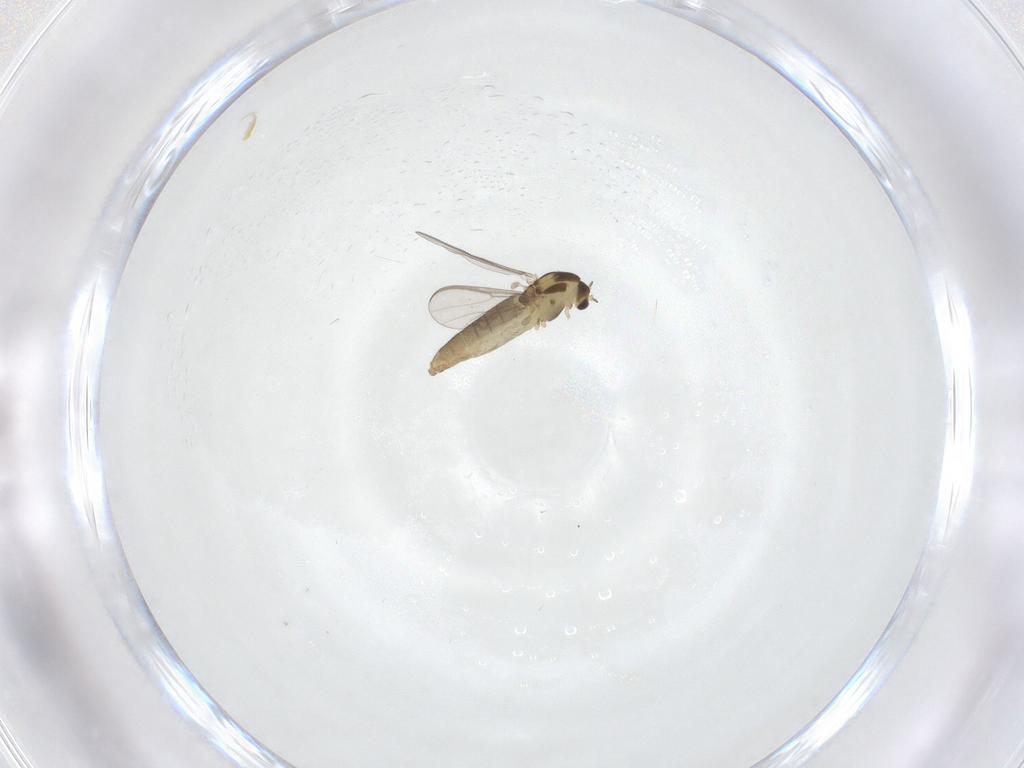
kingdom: Animalia
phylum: Arthropoda
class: Insecta
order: Diptera
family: Chironomidae
